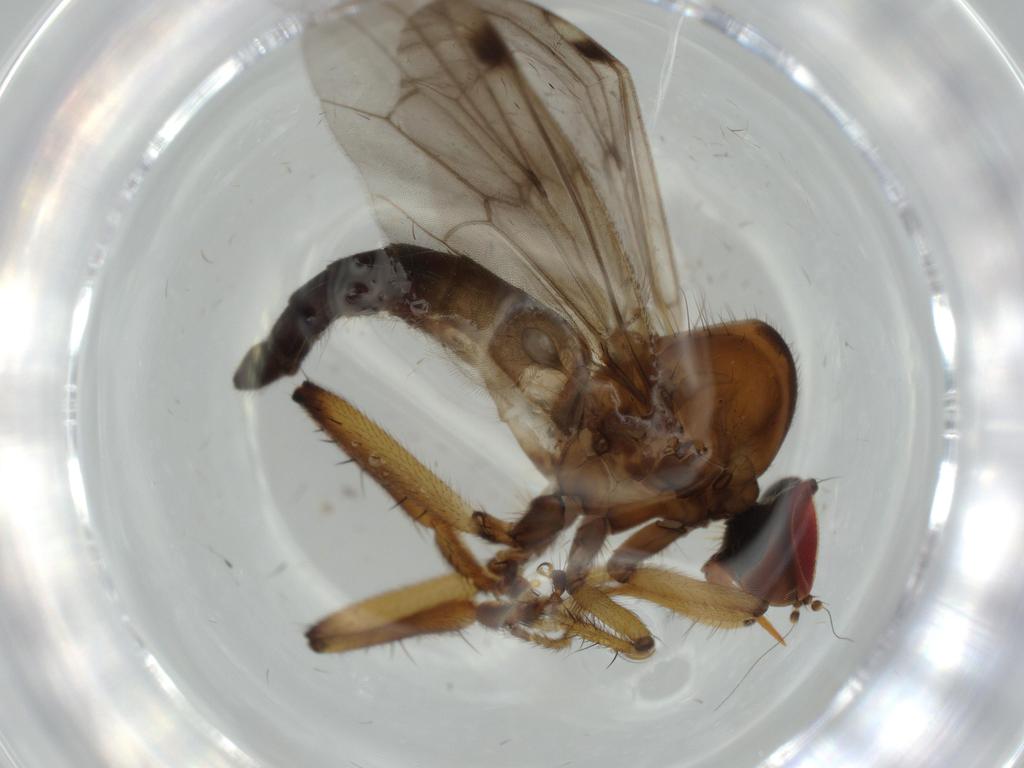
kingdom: Animalia
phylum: Arthropoda
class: Insecta
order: Diptera
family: Hybotidae
